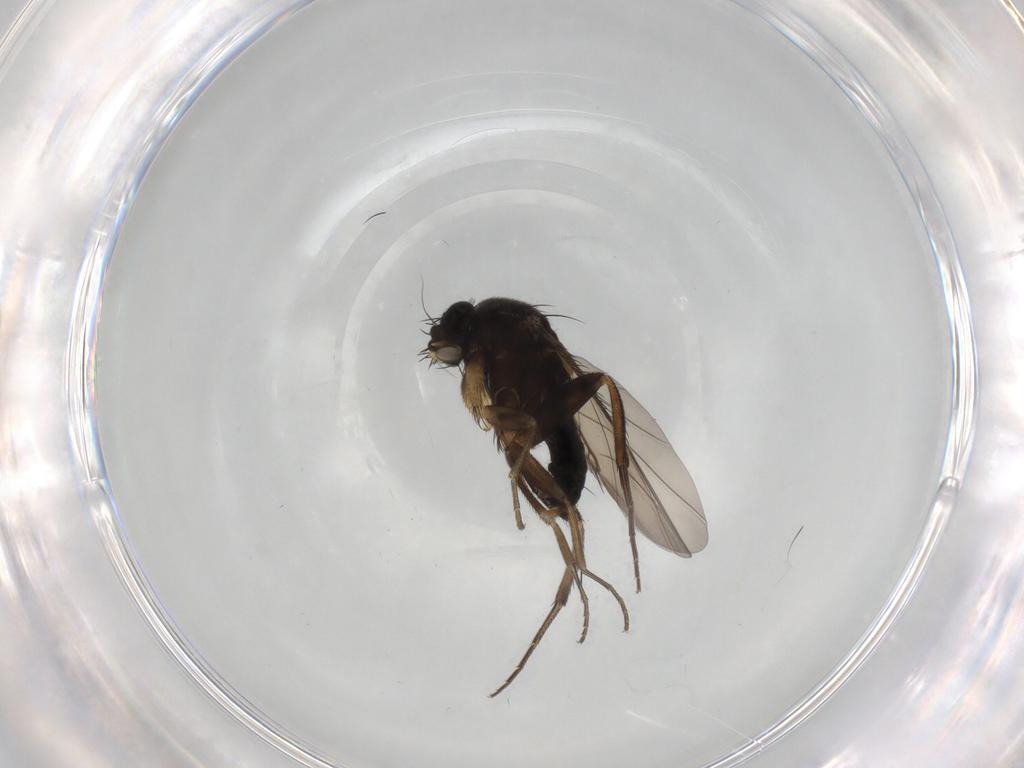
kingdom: Animalia
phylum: Arthropoda
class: Insecta
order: Diptera
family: Phoridae
